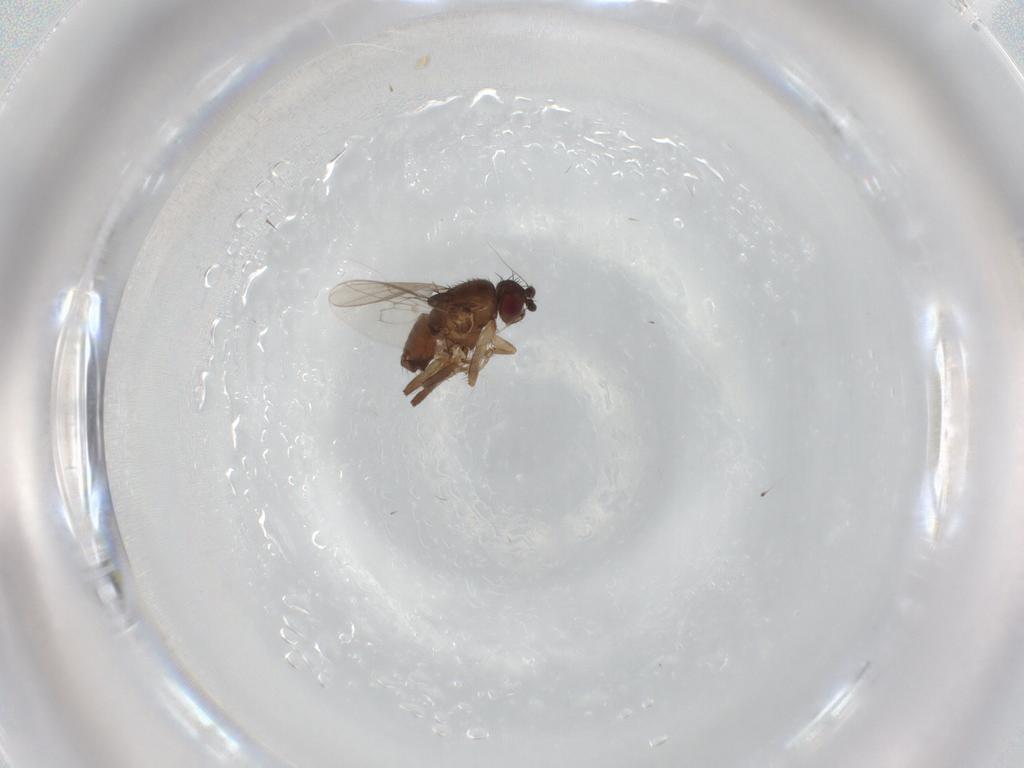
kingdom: Animalia
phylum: Arthropoda
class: Insecta
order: Diptera
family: Sphaeroceridae
